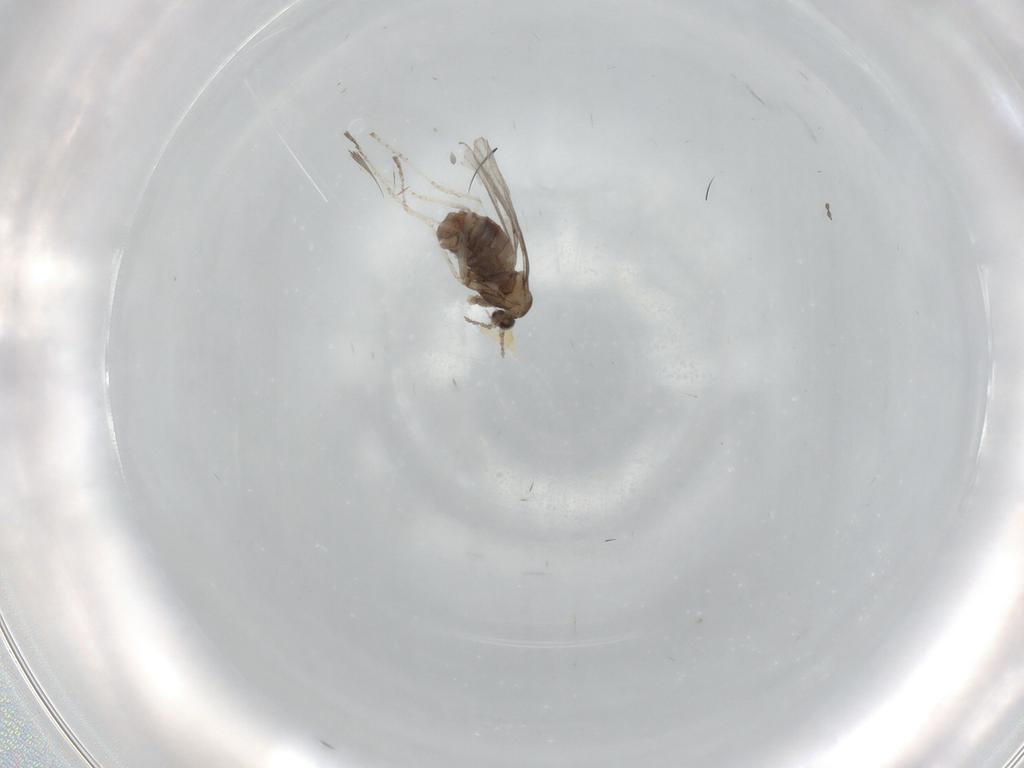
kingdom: Animalia
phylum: Arthropoda
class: Insecta
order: Diptera
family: Cecidomyiidae
